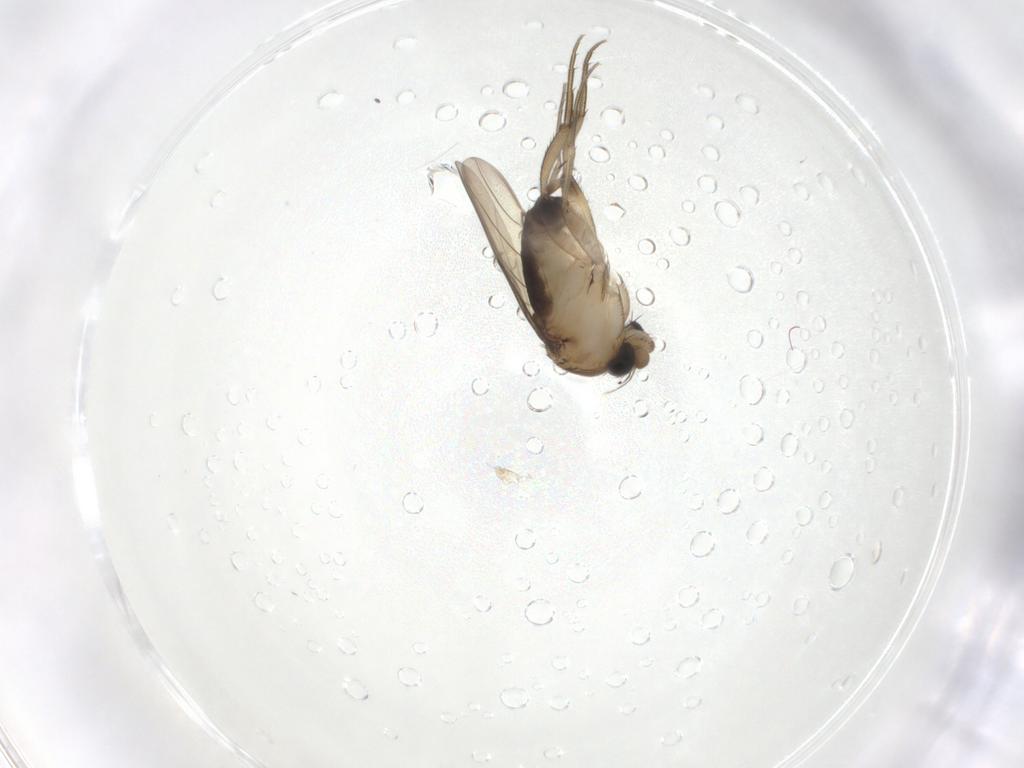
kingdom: Animalia
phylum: Arthropoda
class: Insecta
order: Diptera
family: Phoridae
